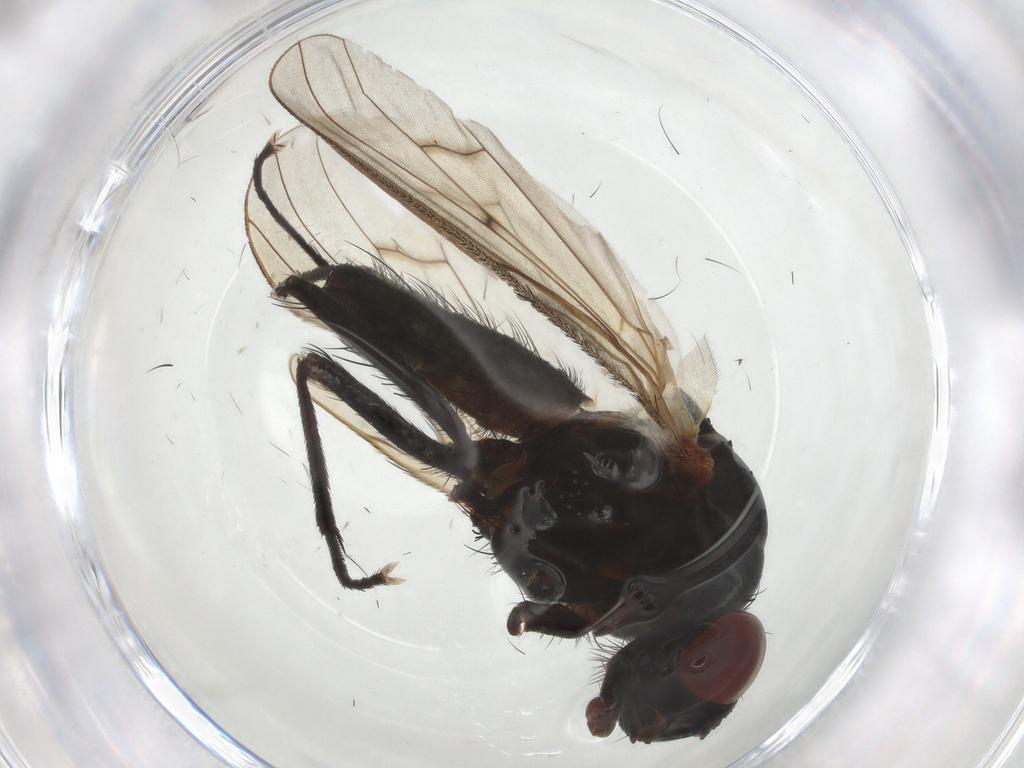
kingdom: Animalia
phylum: Arthropoda
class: Insecta
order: Diptera
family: Anthomyiidae
